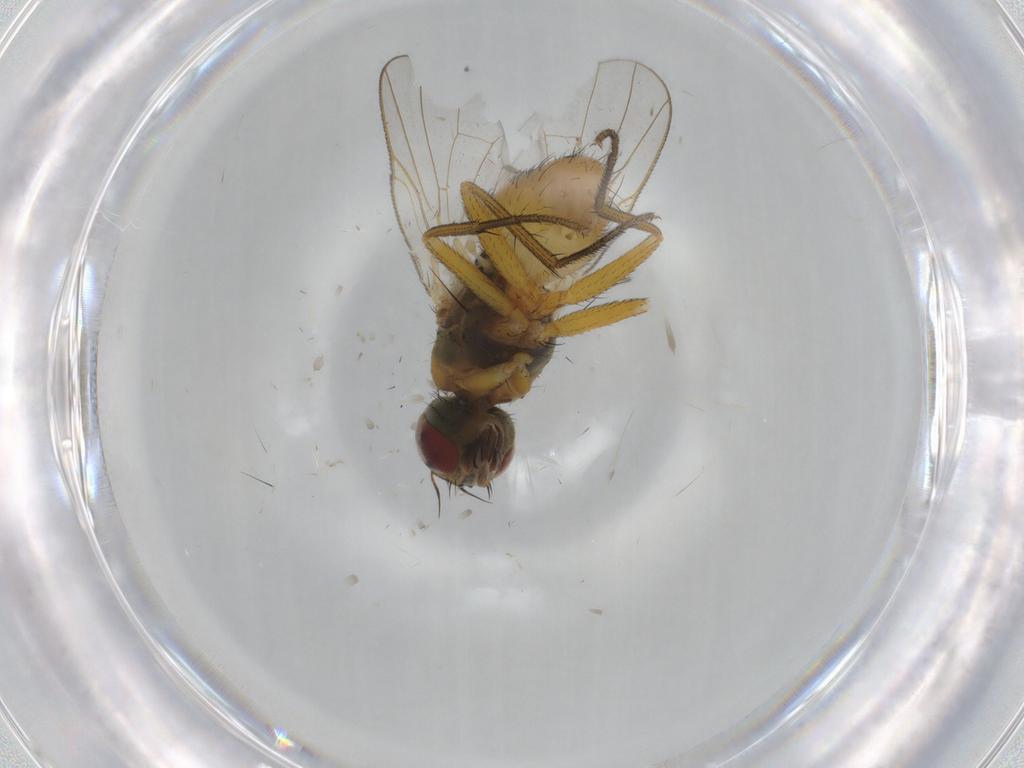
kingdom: Animalia
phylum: Arthropoda
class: Insecta
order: Diptera
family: Muscidae
